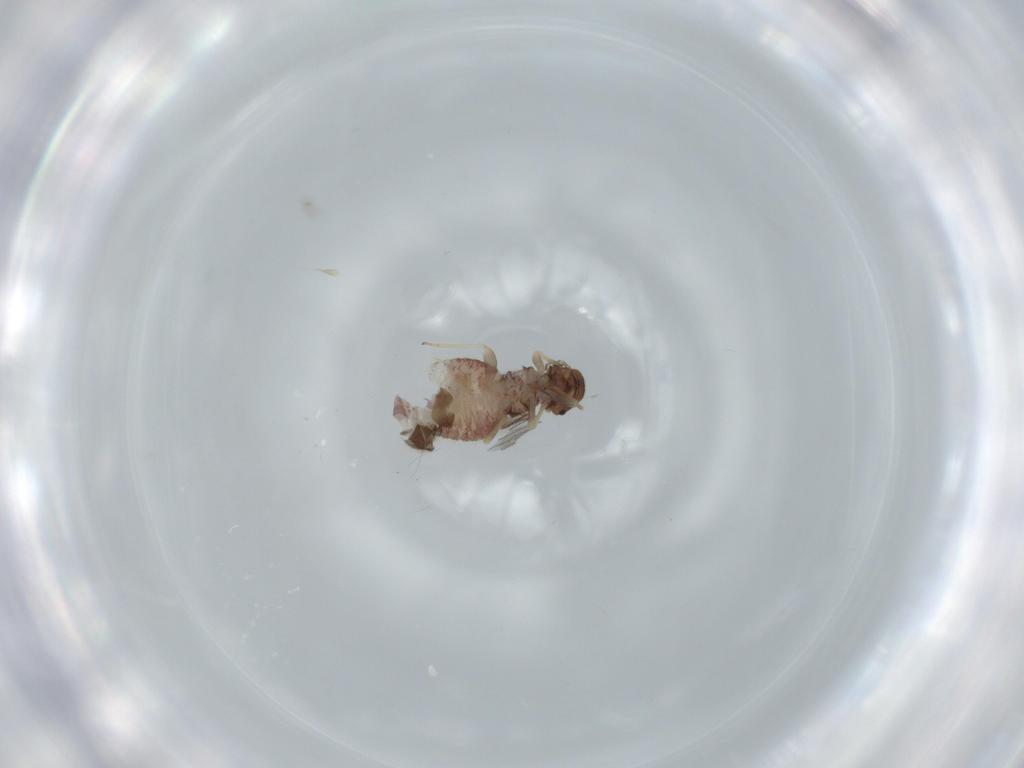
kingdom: Animalia
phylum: Arthropoda
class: Insecta
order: Psocodea
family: Archipsocidae
